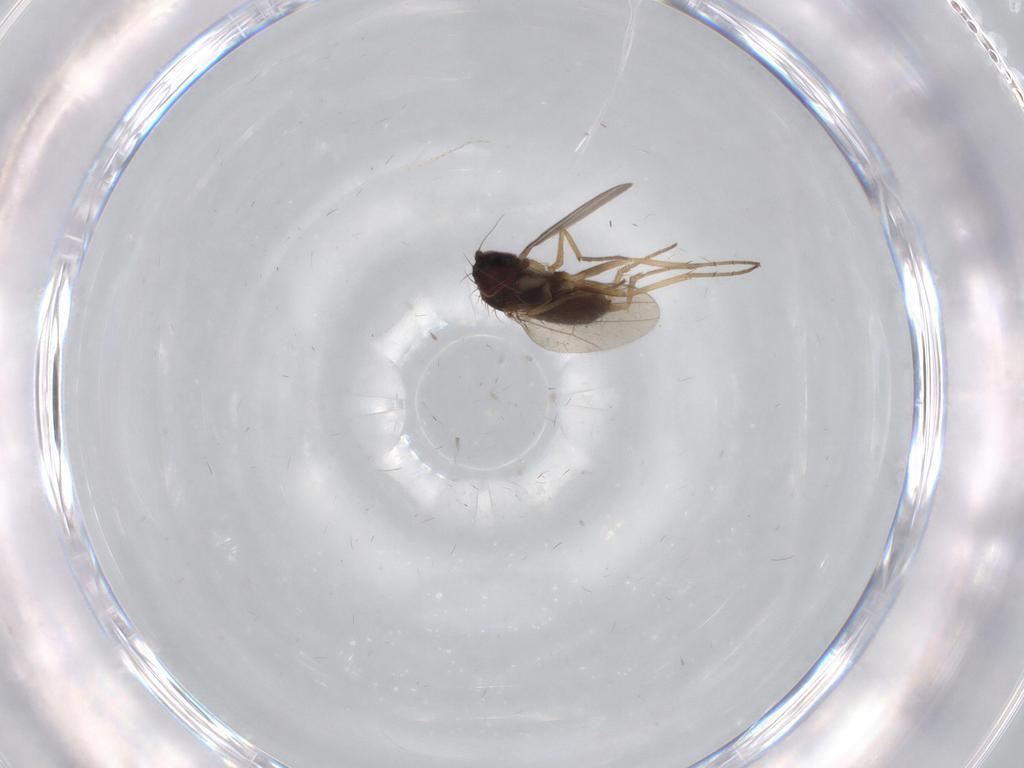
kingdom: Animalia
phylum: Arthropoda
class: Insecta
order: Diptera
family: Dolichopodidae
